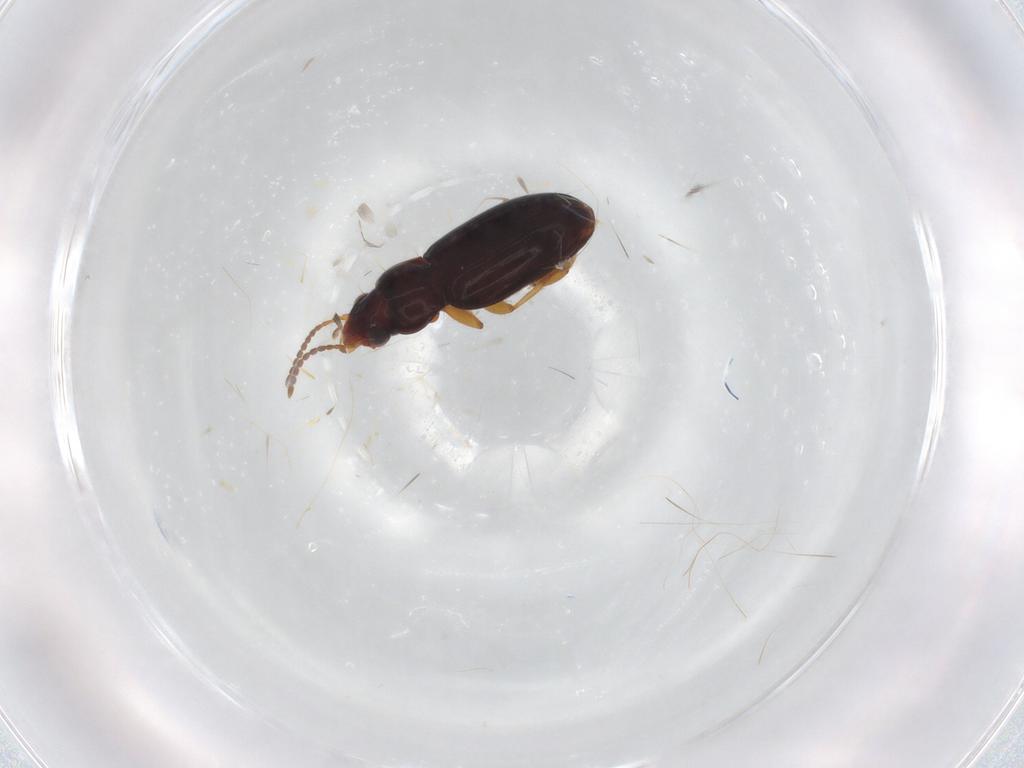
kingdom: Animalia
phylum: Arthropoda
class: Insecta
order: Coleoptera
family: Carabidae
